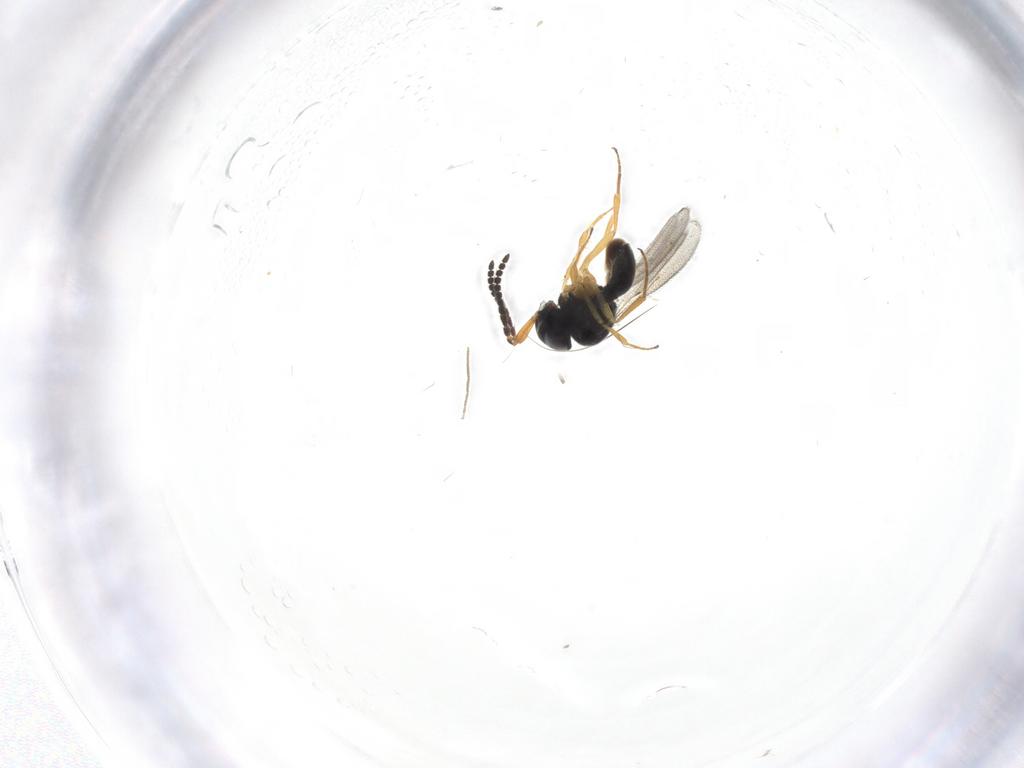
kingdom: Animalia
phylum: Arthropoda
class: Insecta
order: Hymenoptera
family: Scelionidae
